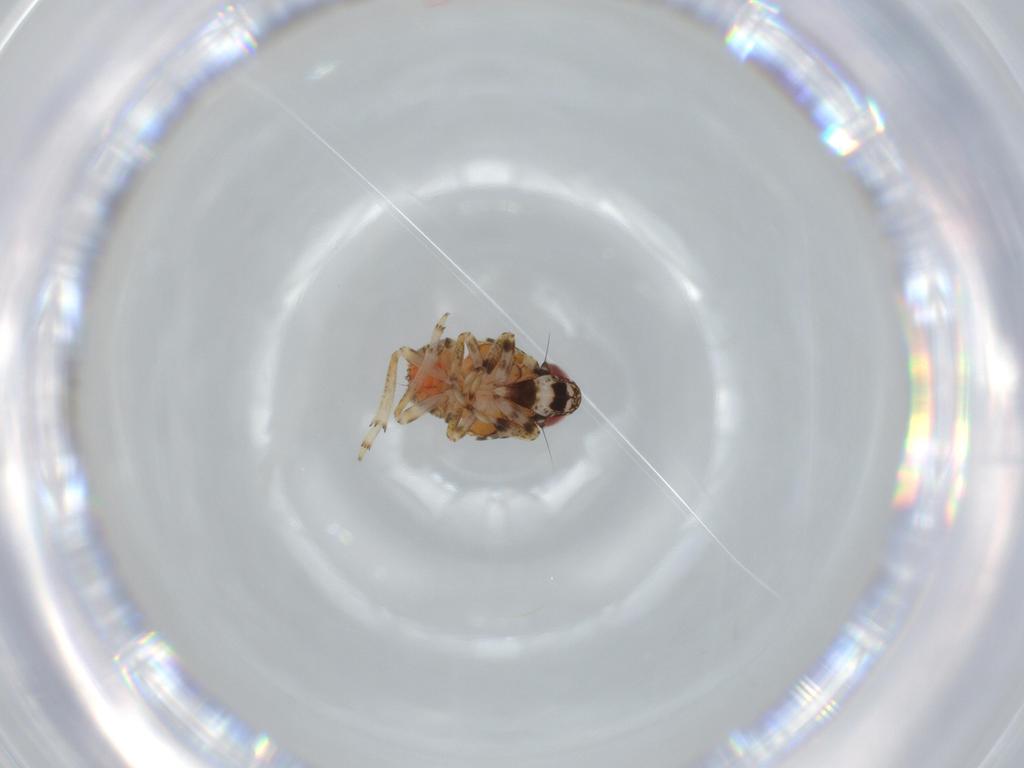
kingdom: Animalia
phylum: Arthropoda
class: Insecta
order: Hemiptera
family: Issidae
